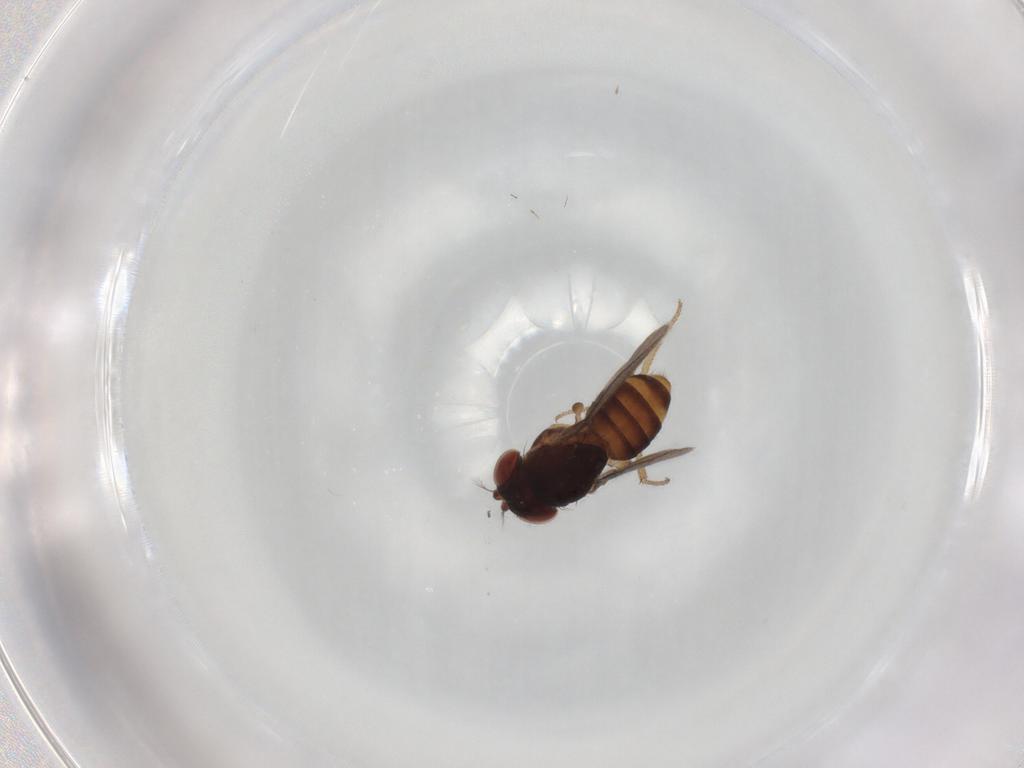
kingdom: Animalia
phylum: Arthropoda
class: Insecta
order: Diptera
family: Drosophilidae
